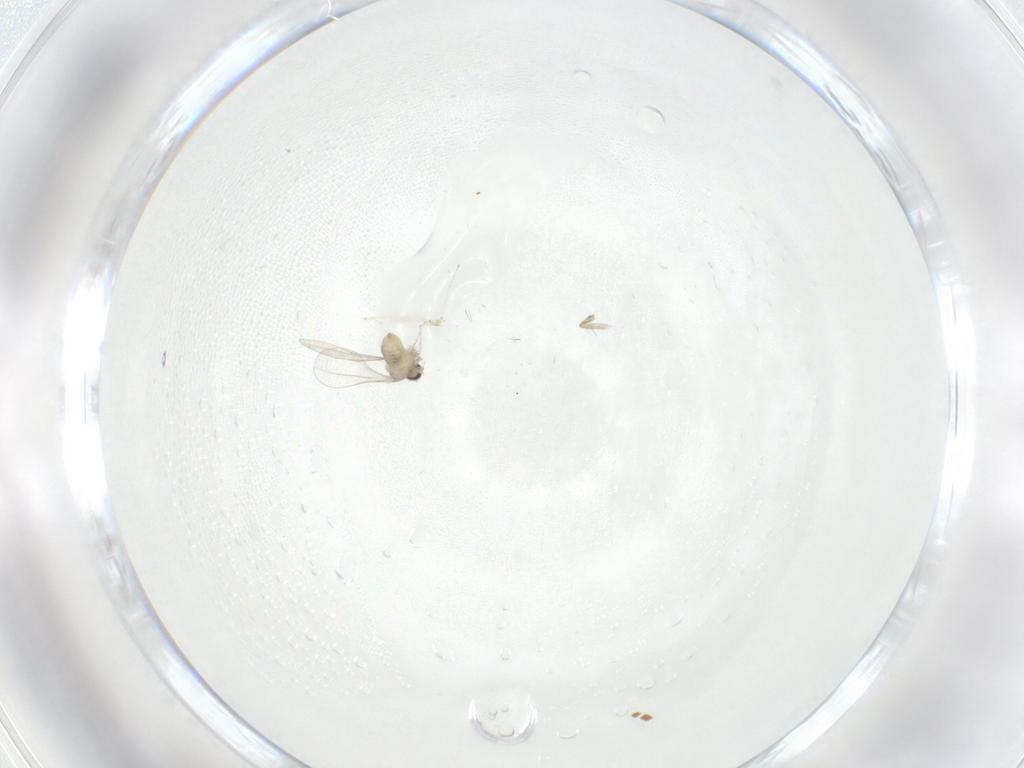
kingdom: Animalia
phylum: Arthropoda
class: Insecta
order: Diptera
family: Cecidomyiidae
